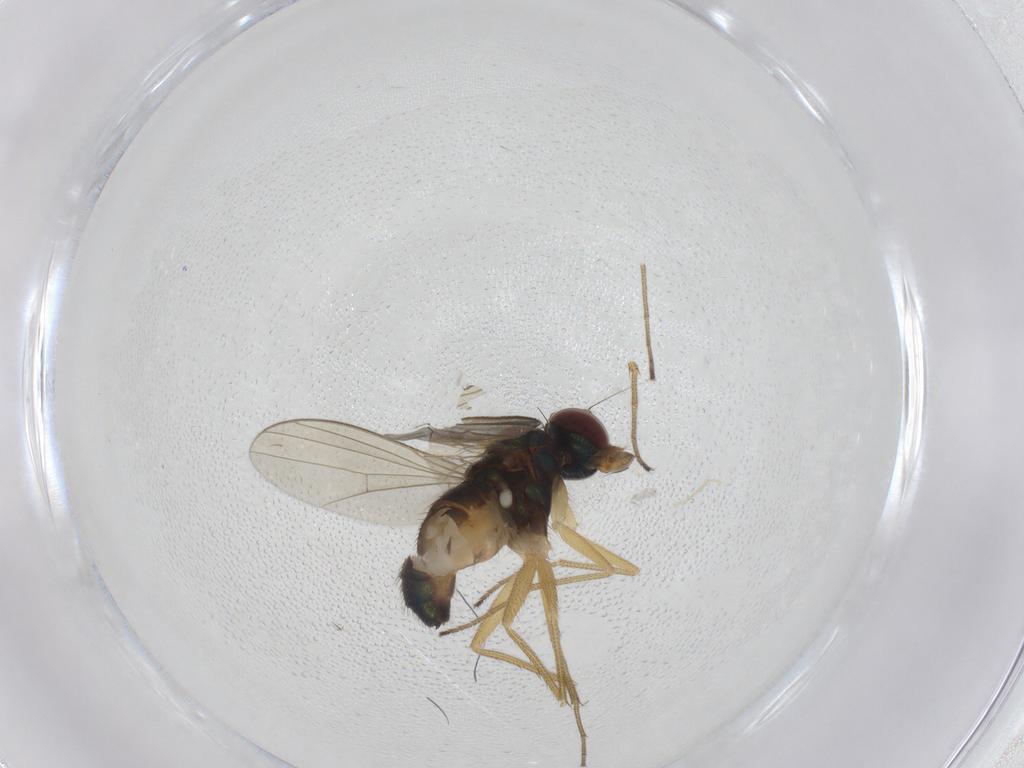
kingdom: Animalia
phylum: Arthropoda
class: Insecta
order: Diptera
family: Dolichopodidae
